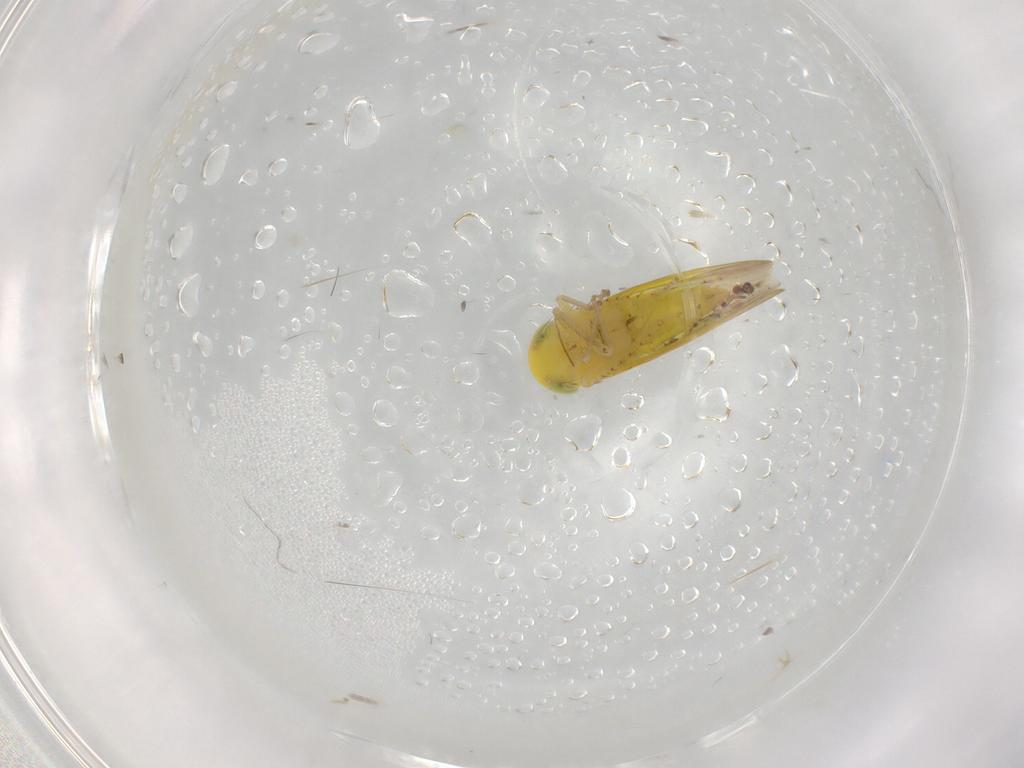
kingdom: Animalia
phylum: Arthropoda
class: Insecta
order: Hemiptera
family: Cicadellidae
